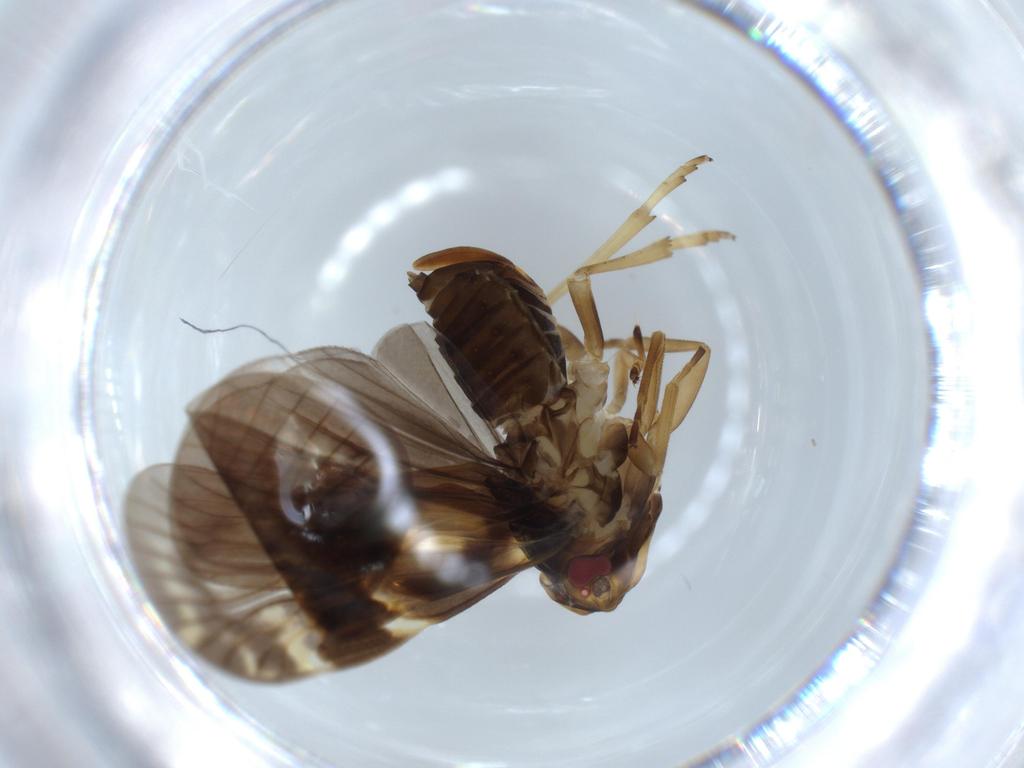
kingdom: Animalia
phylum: Arthropoda
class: Insecta
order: Hemiptera
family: Cixiidae
